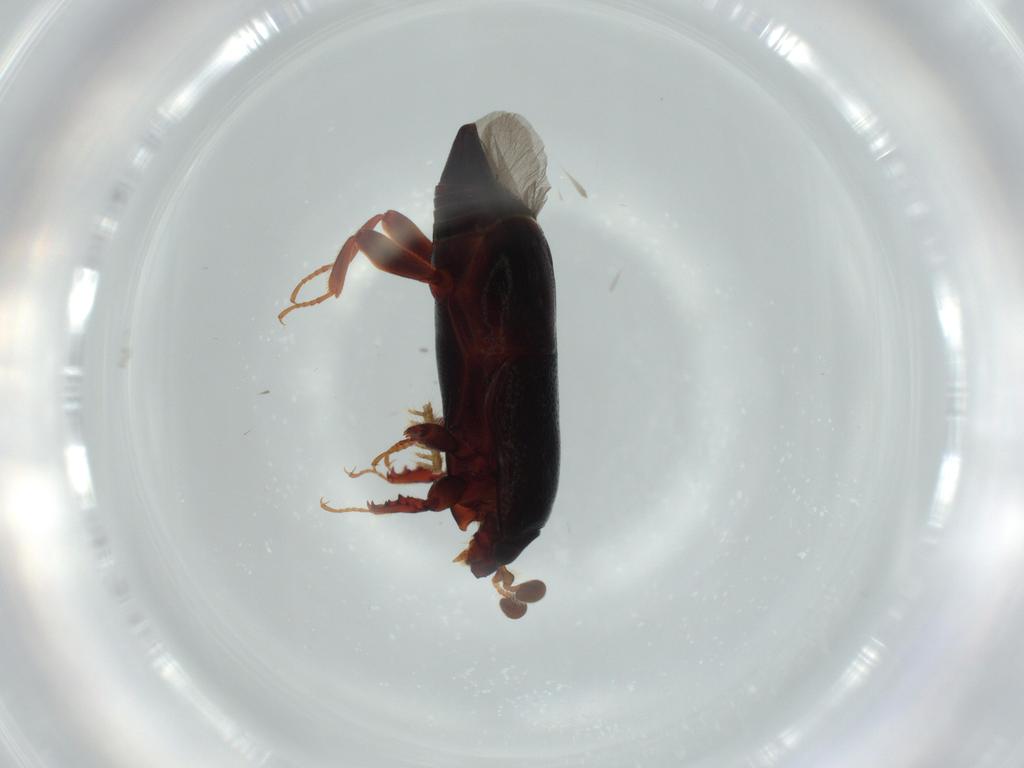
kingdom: Animalia
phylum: Arthropoda
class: Insecta
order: Coleoptera
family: Histeridae
